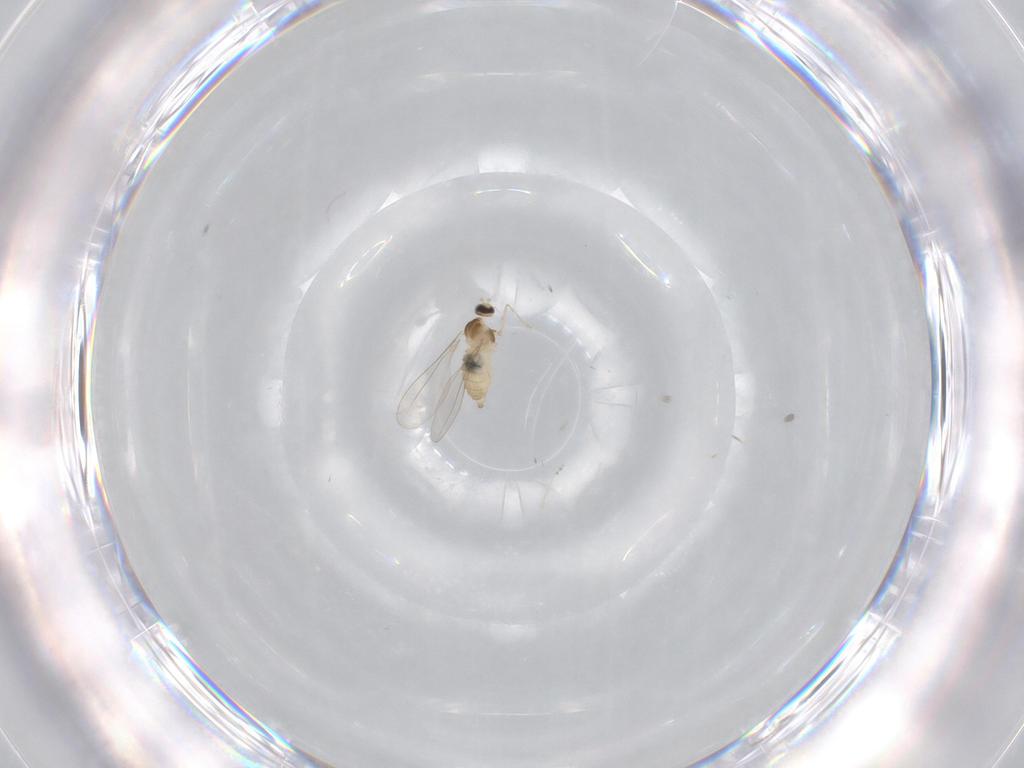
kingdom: Animalia
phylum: Arthropoda
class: Insecta
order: Diptera
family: Cecidomyiidae
